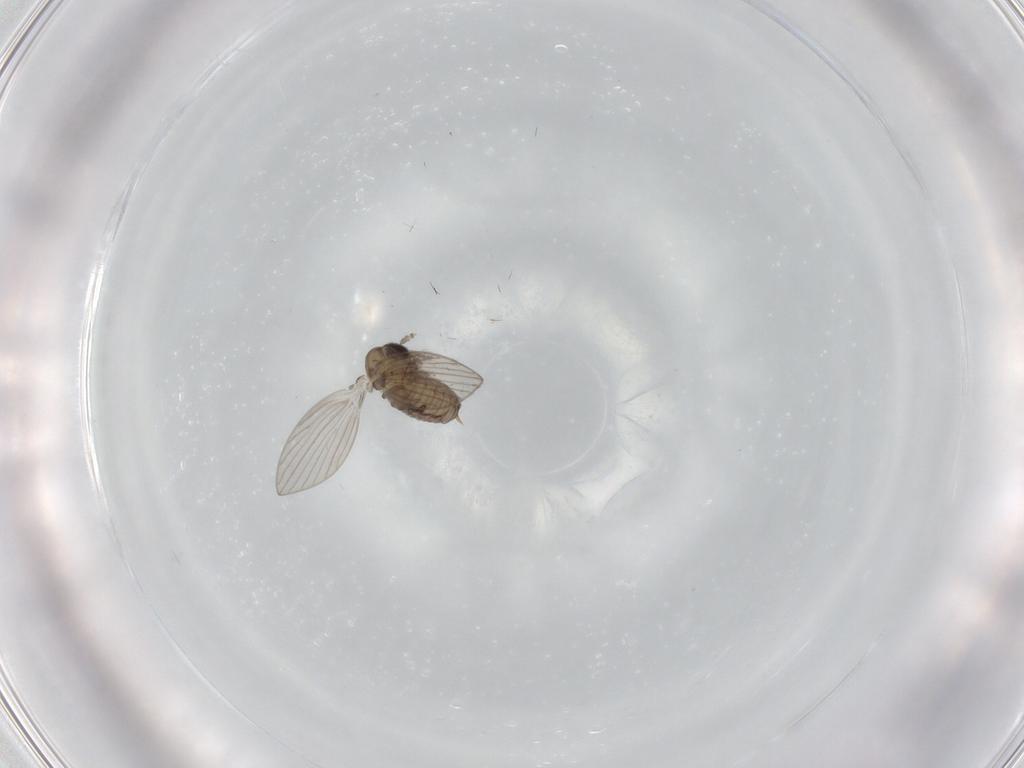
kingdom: Animalia
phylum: Arthropoda
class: Insecta
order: Diptera
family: Psychodidae
